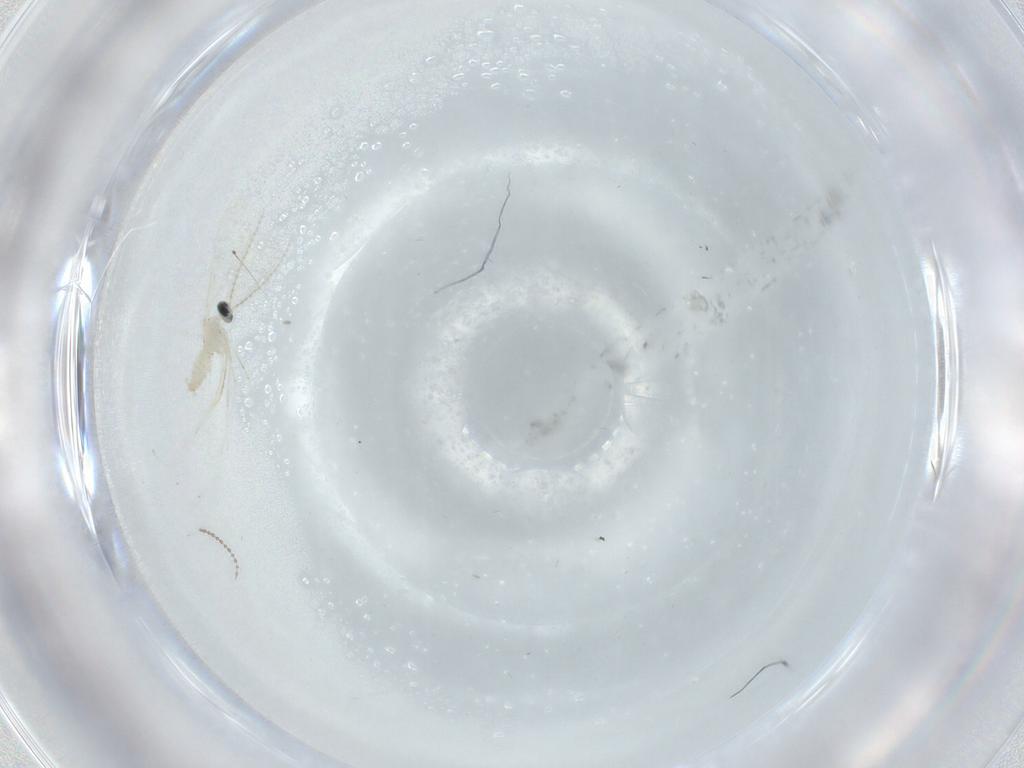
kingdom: Animalia
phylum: Arthropoda
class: Insecta
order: Diptera
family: Cecidomyiidae
